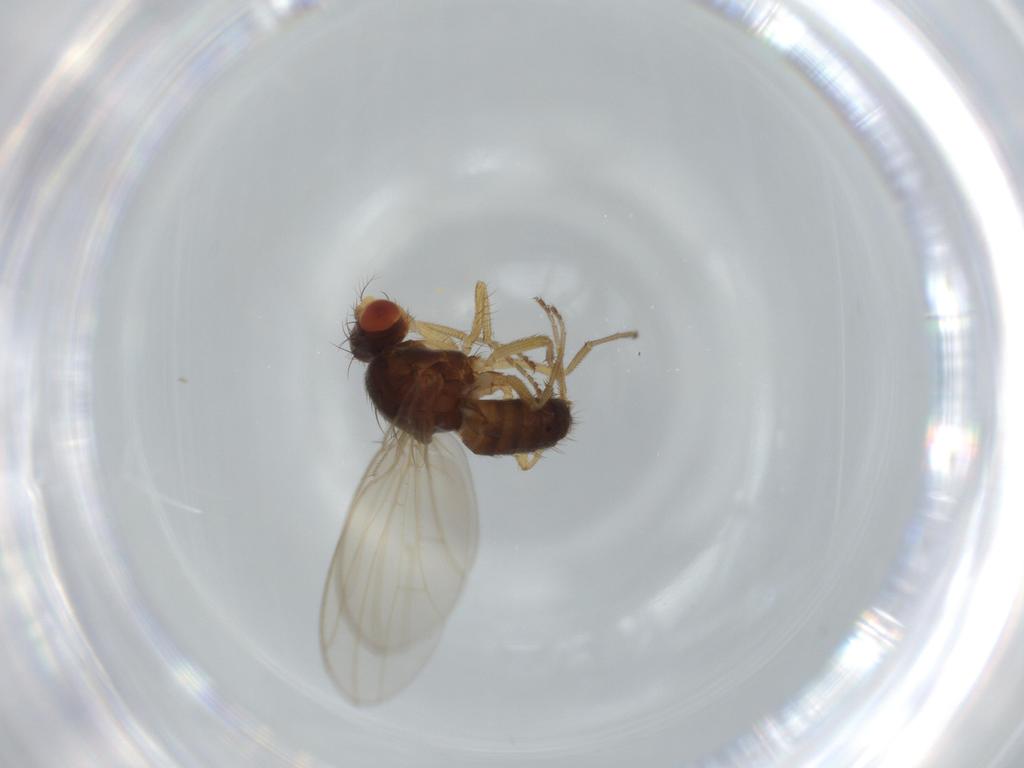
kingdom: Animalia
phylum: Arthropoda
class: Insecta
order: Diptera
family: Drosophilidae
